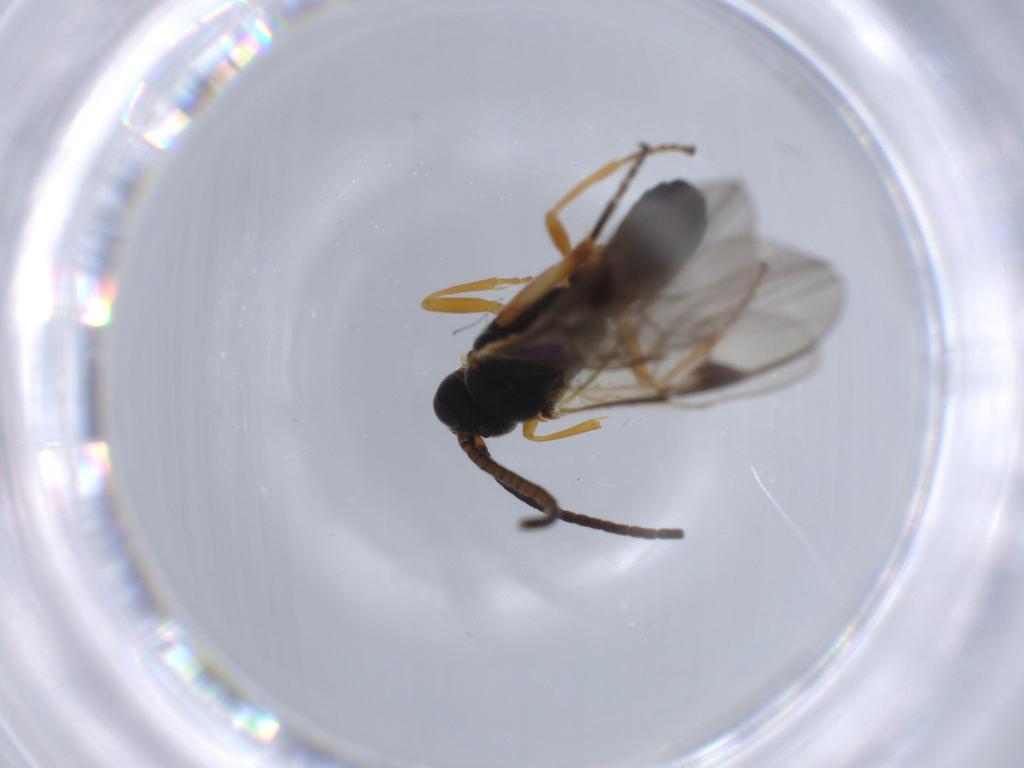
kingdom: Animalia
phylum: Arthropoda
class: Insecta
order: Hymenoptera
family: Braconidae
